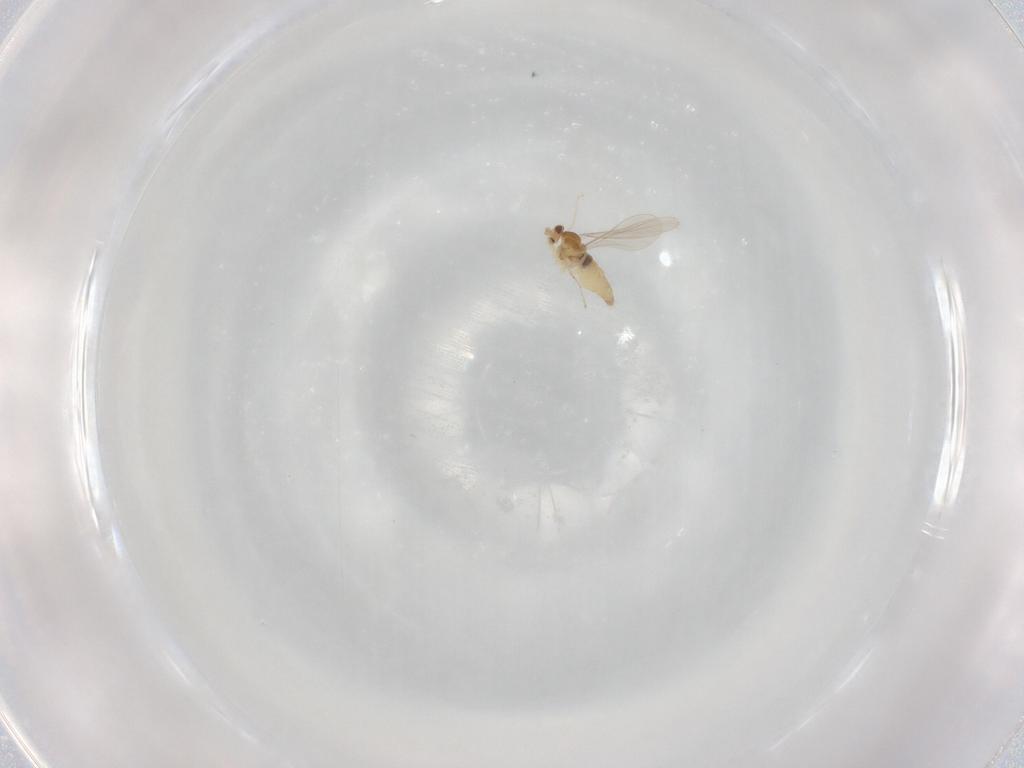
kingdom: Animalia
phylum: Arthropoda
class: Insecta
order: Diptera
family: Cecidomyiidae
